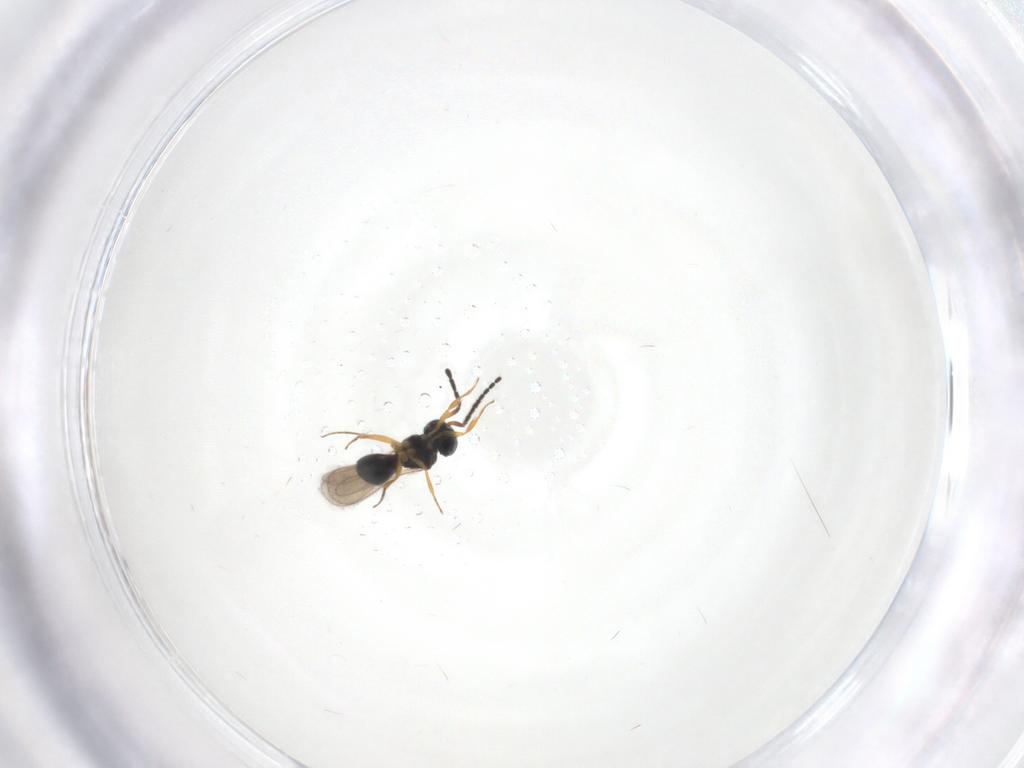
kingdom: Animalia
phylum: Arthropoda
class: Insecta
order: Hymenoptera
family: Scelionidae
